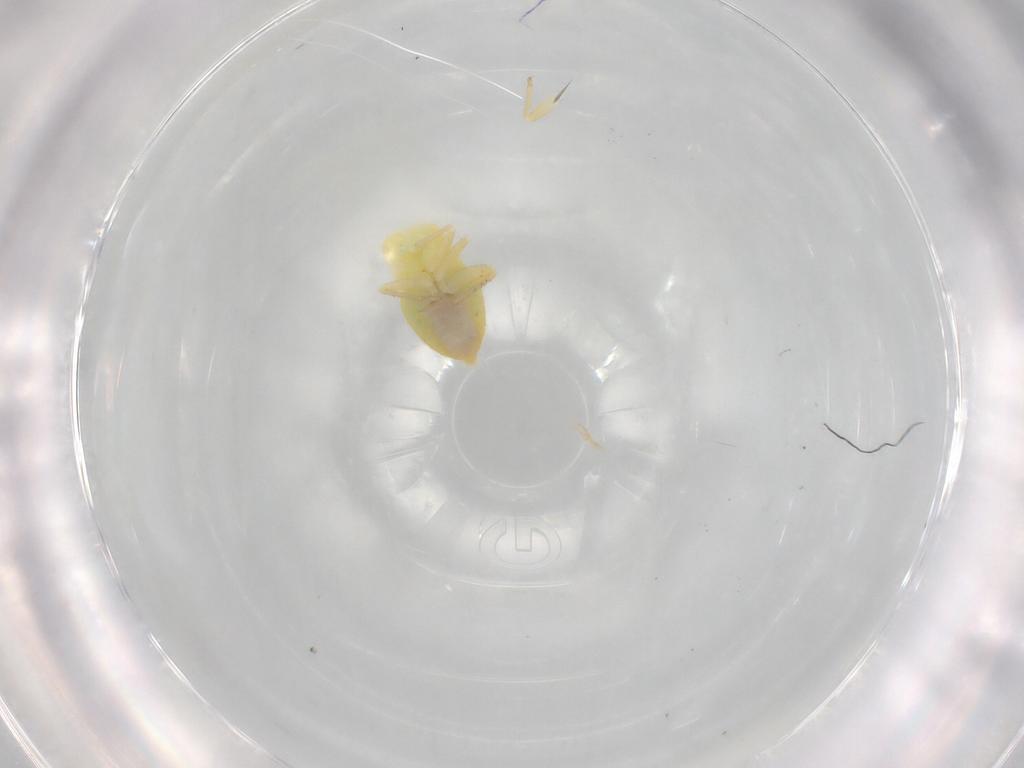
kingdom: Animalia
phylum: Arthropoda
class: Insecta
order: Hemiptera
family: Miridae
